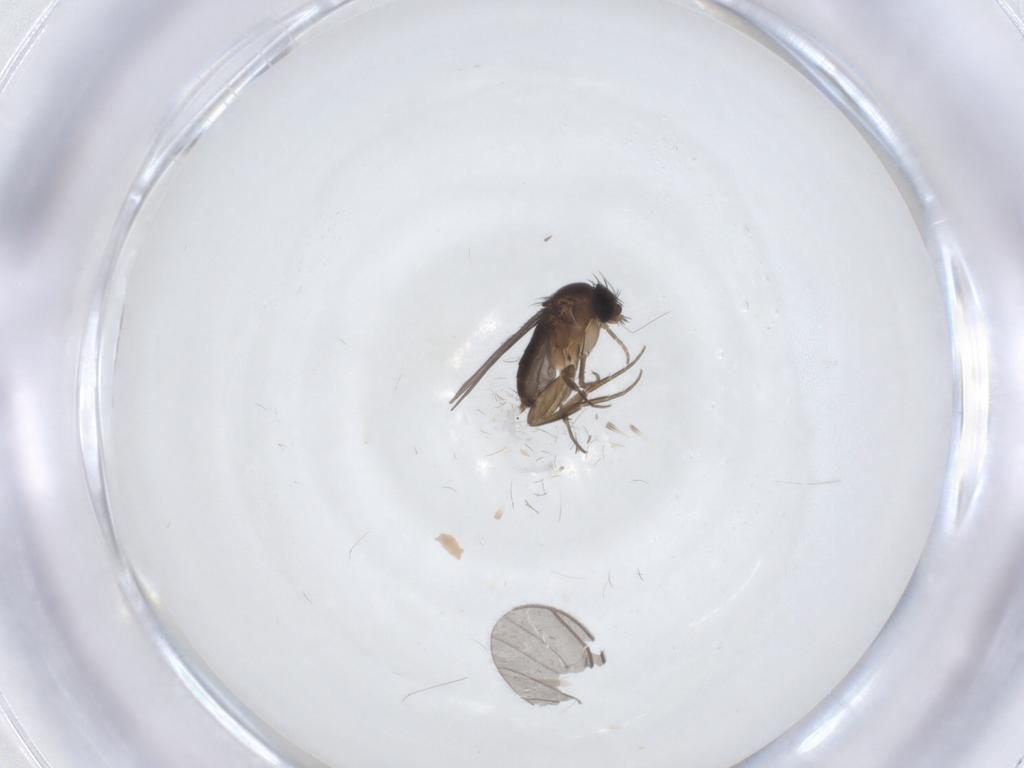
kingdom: Animalia
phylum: Arthropoda
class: Insecta
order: Diptera
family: Phoridae
